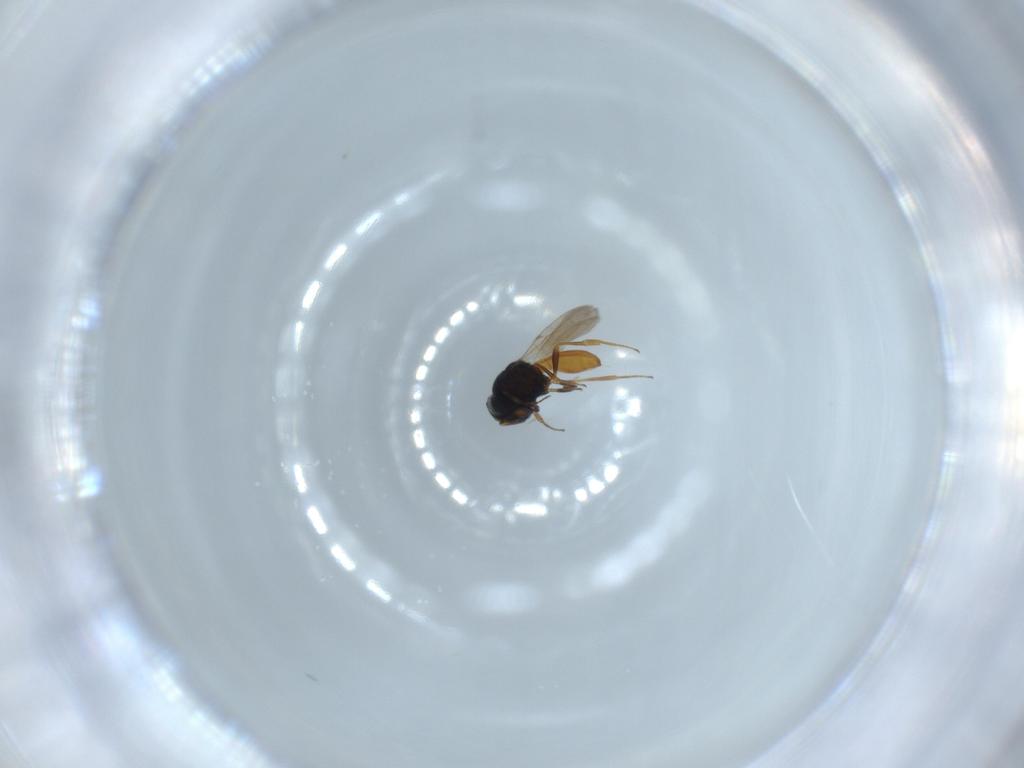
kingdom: Animalia
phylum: Arthropoda
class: Insecta
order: Hymenoptera
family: Scelionidae
